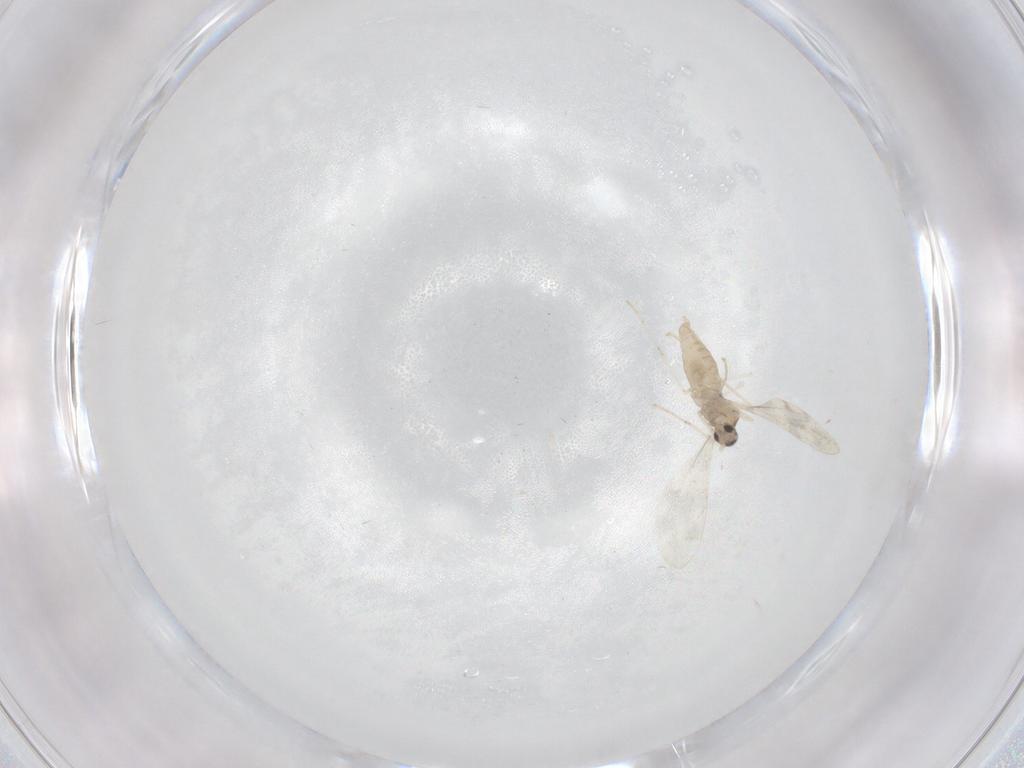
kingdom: Animalia
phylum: Arthropoda
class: Insecta
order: Diptera
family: Cecidomyiidae
